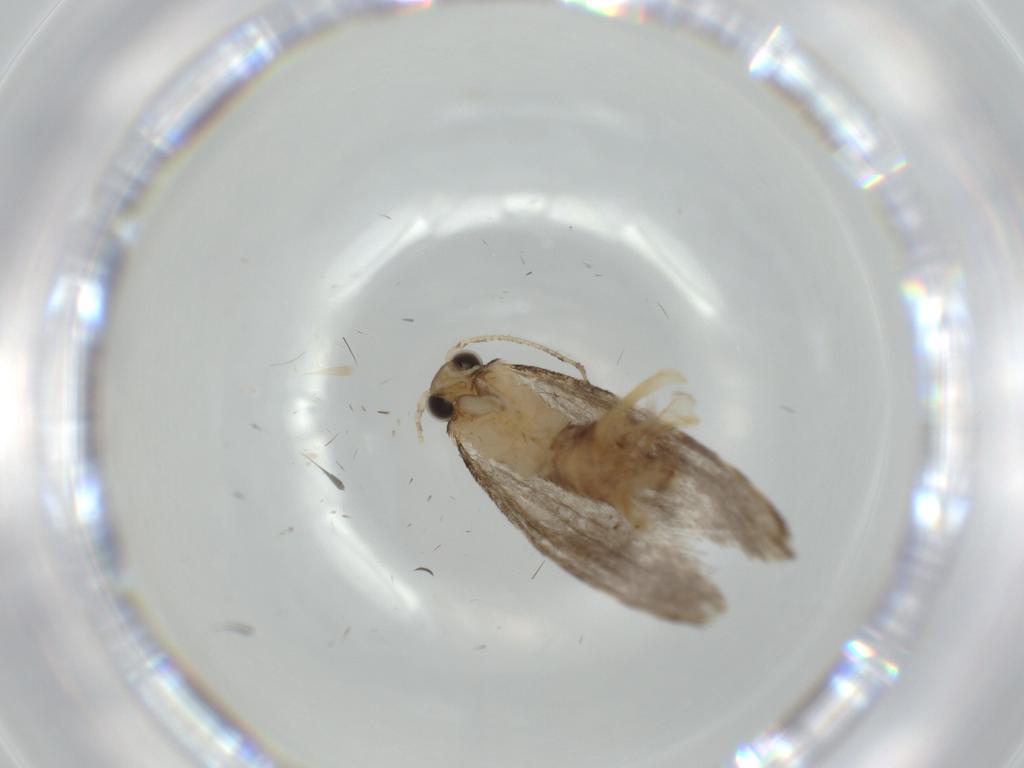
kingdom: Animalia
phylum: Arthropoda
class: Insecta
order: Lepidoptera
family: Tineidae
